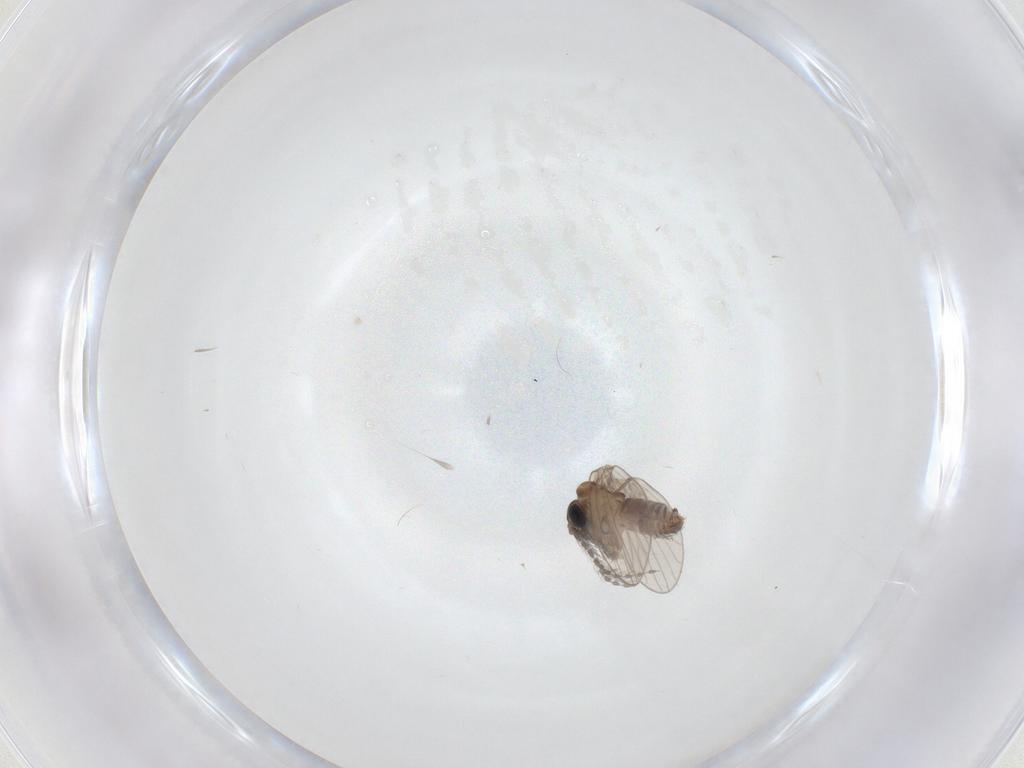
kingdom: Animalia
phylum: Arthropoda
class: Insecta
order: Diptera
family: Psychodidae
